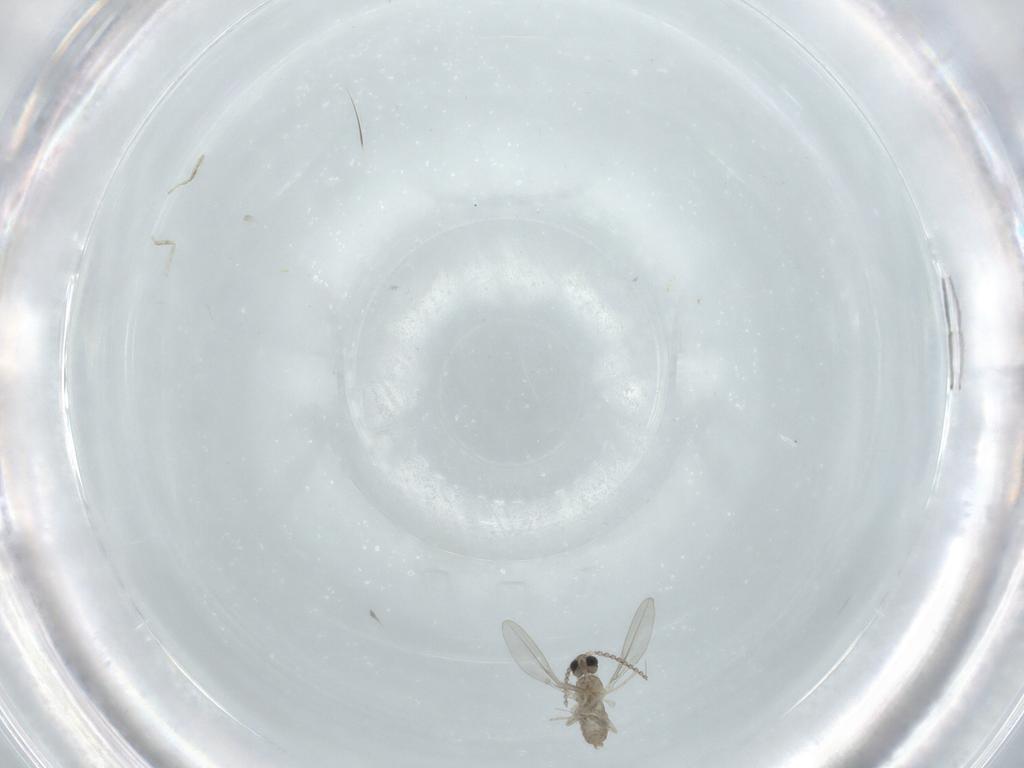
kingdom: Animalia
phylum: Arthropoda
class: Insecta
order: Diptera
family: Cecidomyiidae
